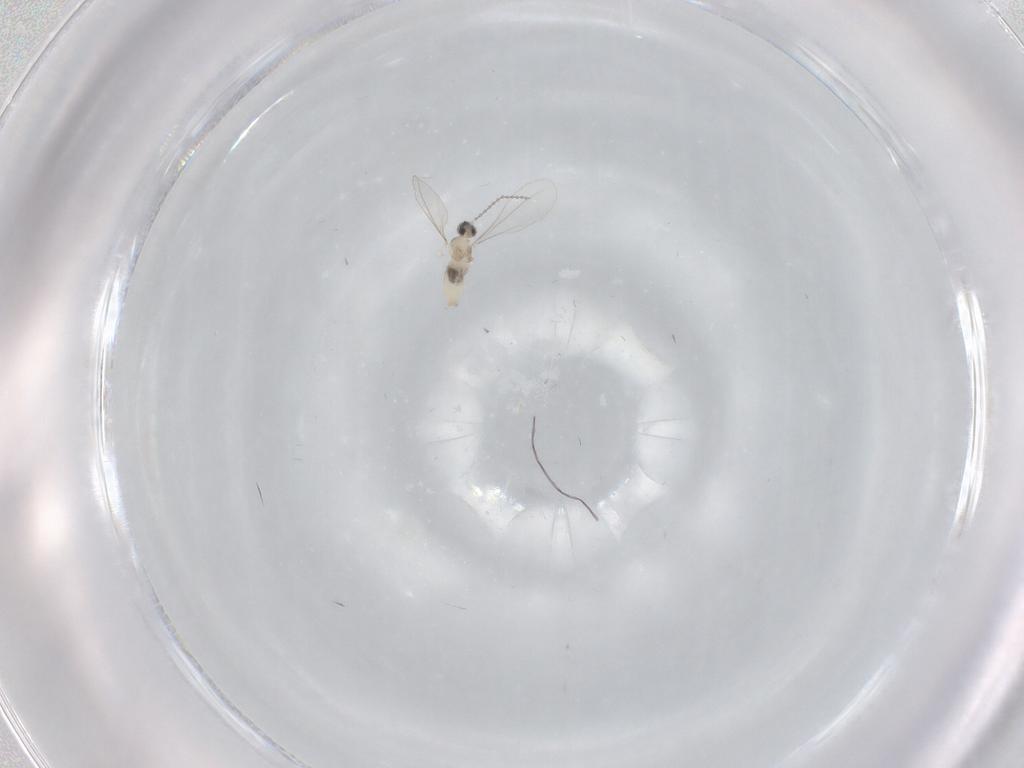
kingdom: Animalia
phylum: Arthropoda
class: Insecta
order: Diptera
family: Cecidomyiidae
